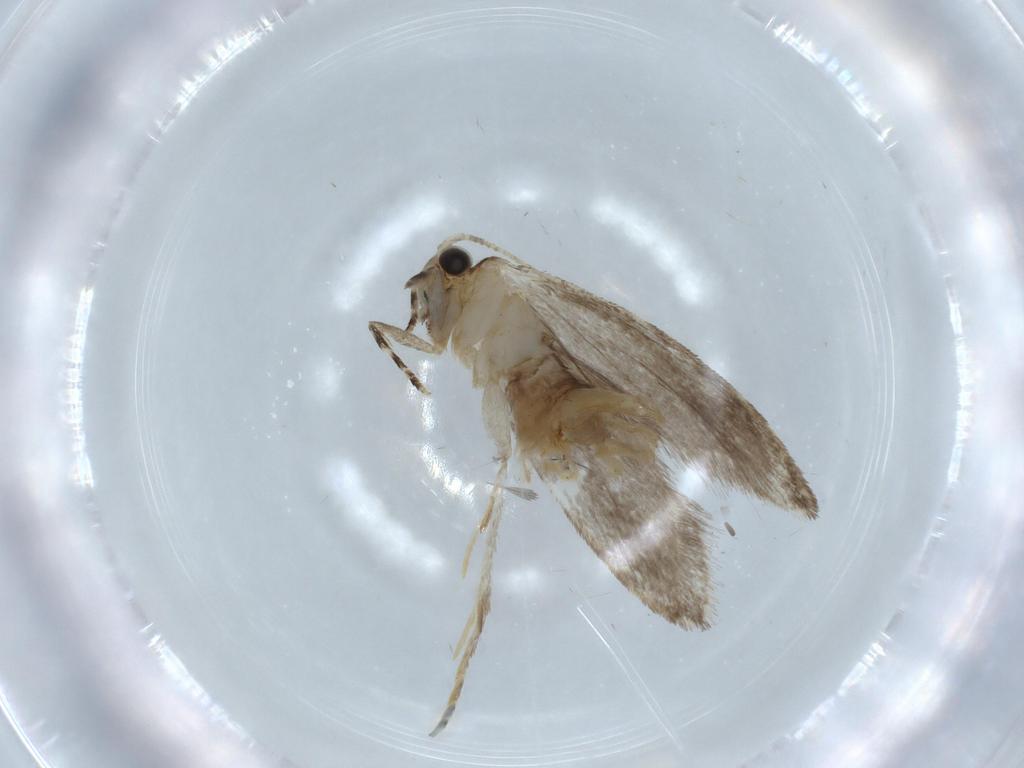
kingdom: Animalia
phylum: Arthropoda
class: Insecta
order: Lepidoptera
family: Tineidae
